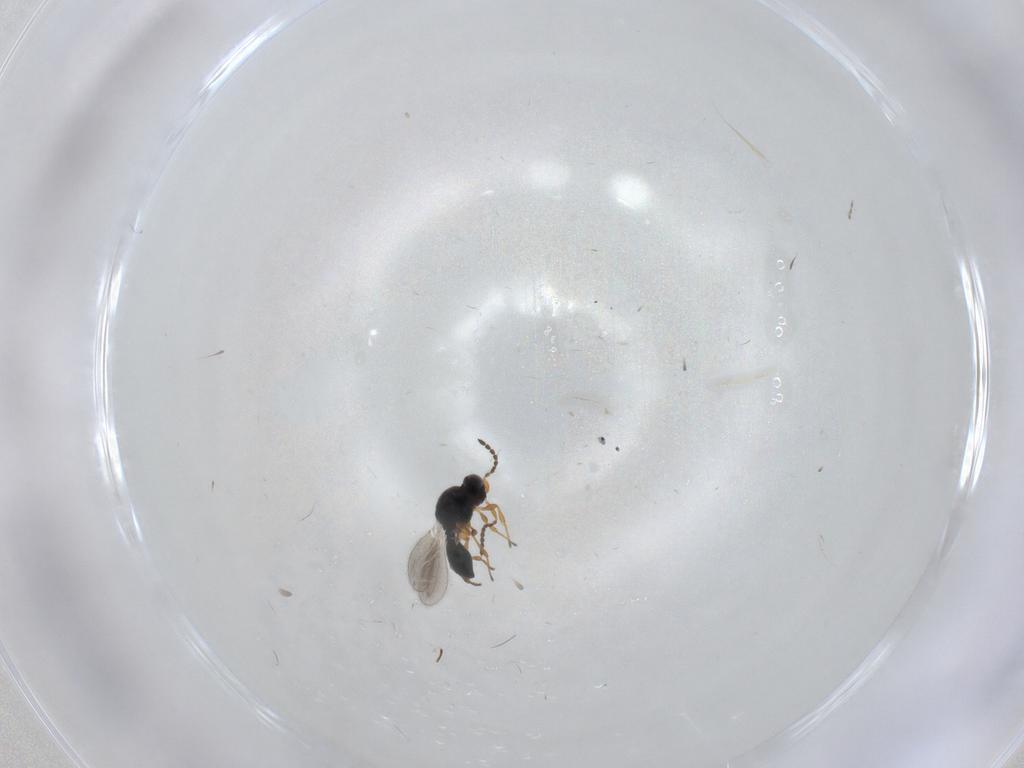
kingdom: Animalia
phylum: Arthropoda
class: Insecta
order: Hymenoptera
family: Platygastridae
